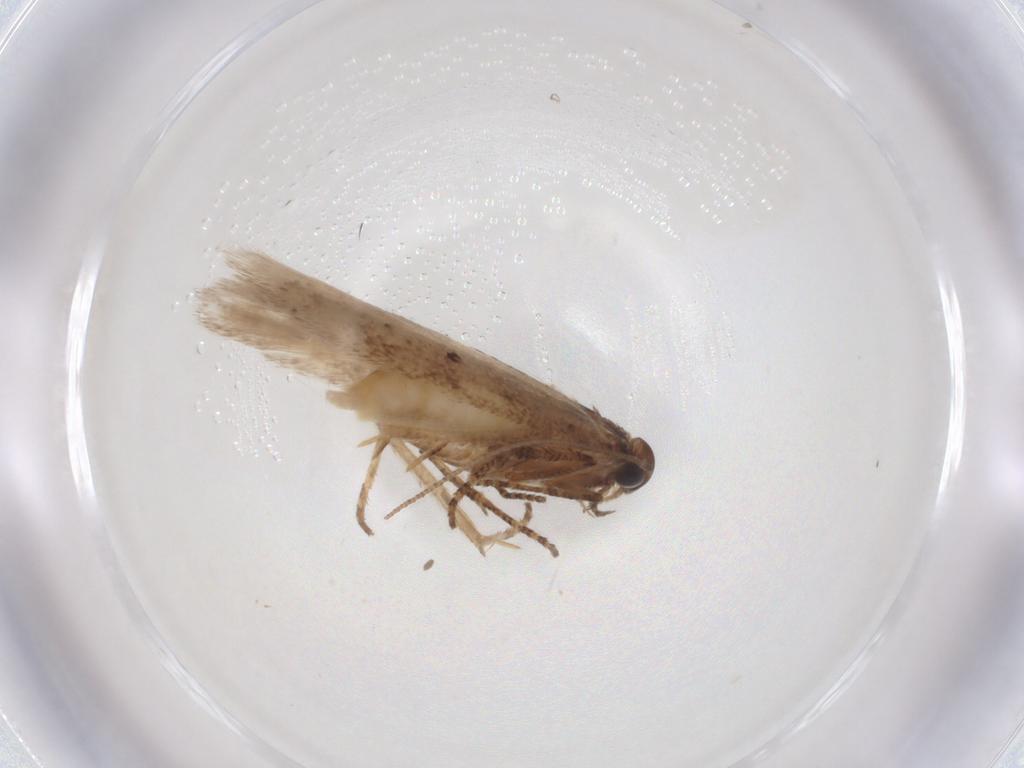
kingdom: Animalia
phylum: Arthropoda
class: Insecta
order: Lepidoptera
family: Gelechiidae
